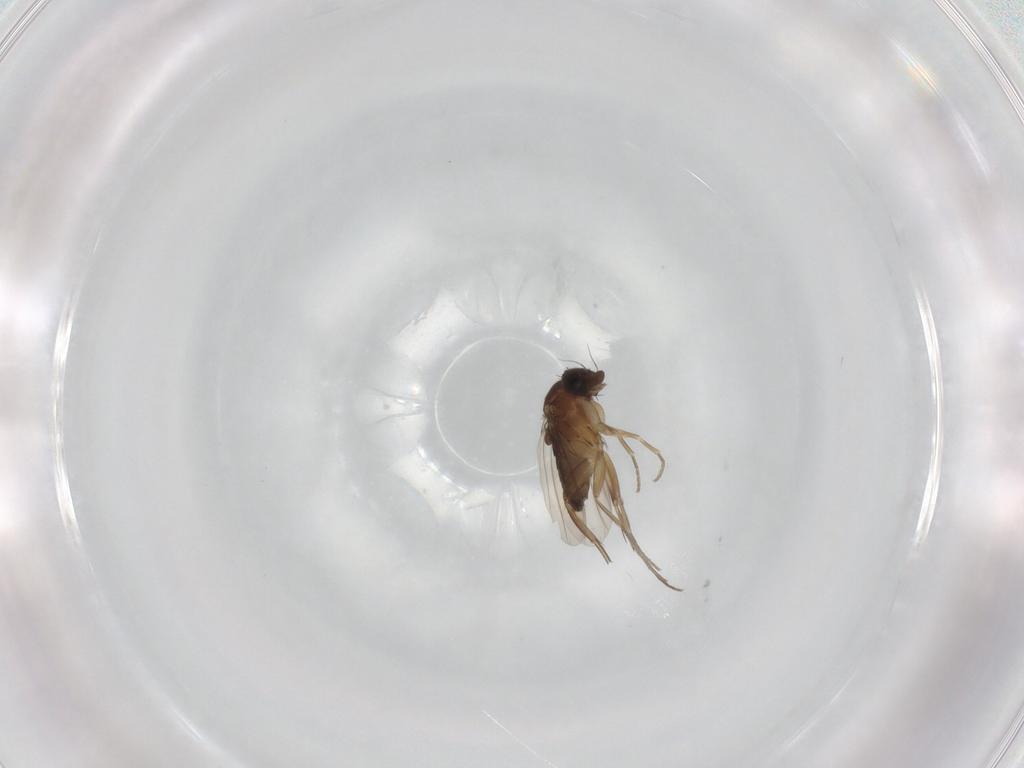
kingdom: Animalia
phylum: Arthropoda
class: Insecta
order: Diptera
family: Phoridae
